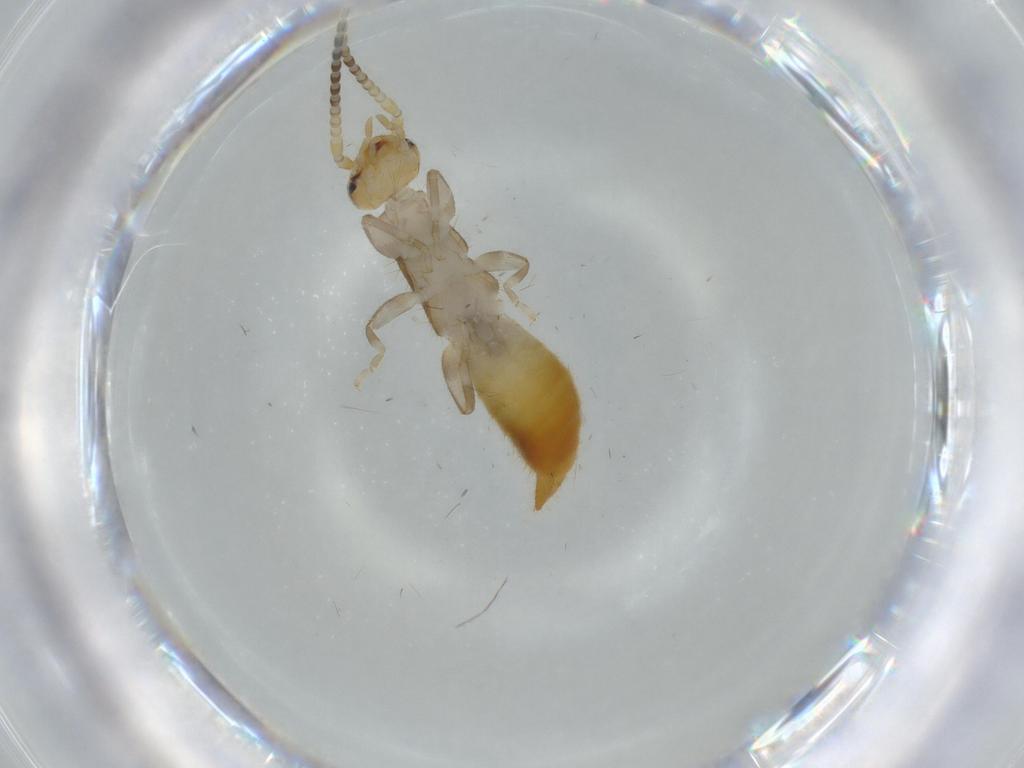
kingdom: Animalia
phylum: Arthropoda
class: Insecta
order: Dermaptera
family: Forficulidae
